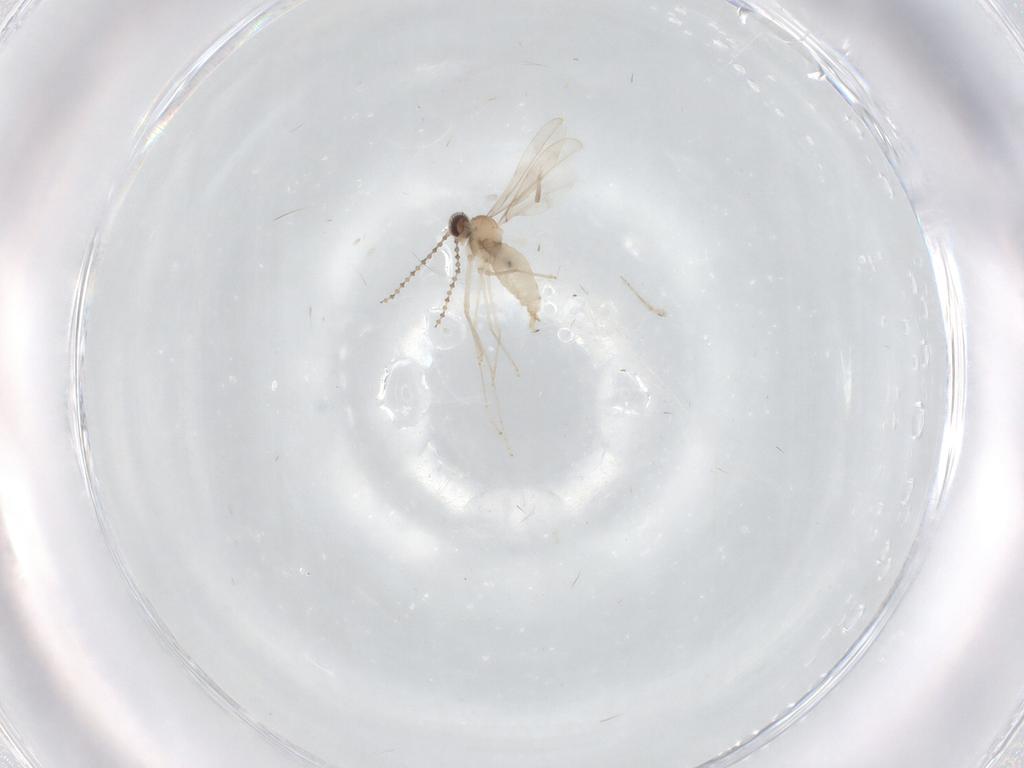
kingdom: Animalia
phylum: Arthropoda
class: Insecta
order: Diptera
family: Mycetophilidae
